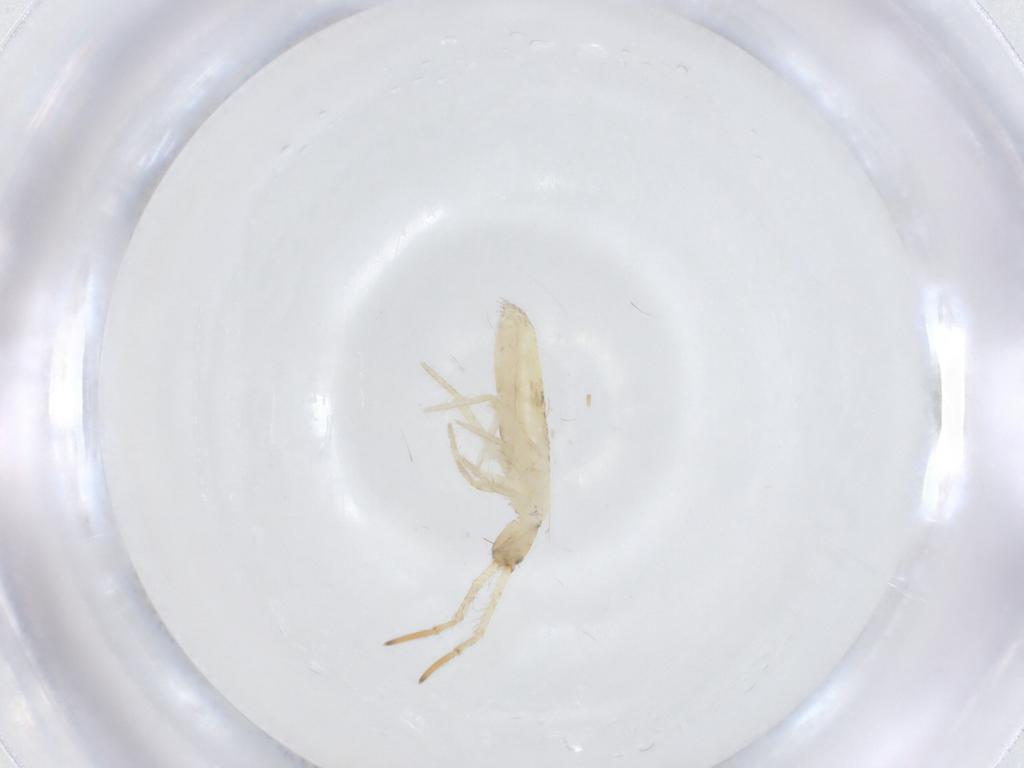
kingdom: Animalia
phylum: Arthropoda
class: Collembola
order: Entomobryomorpha
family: Entomobryidae
